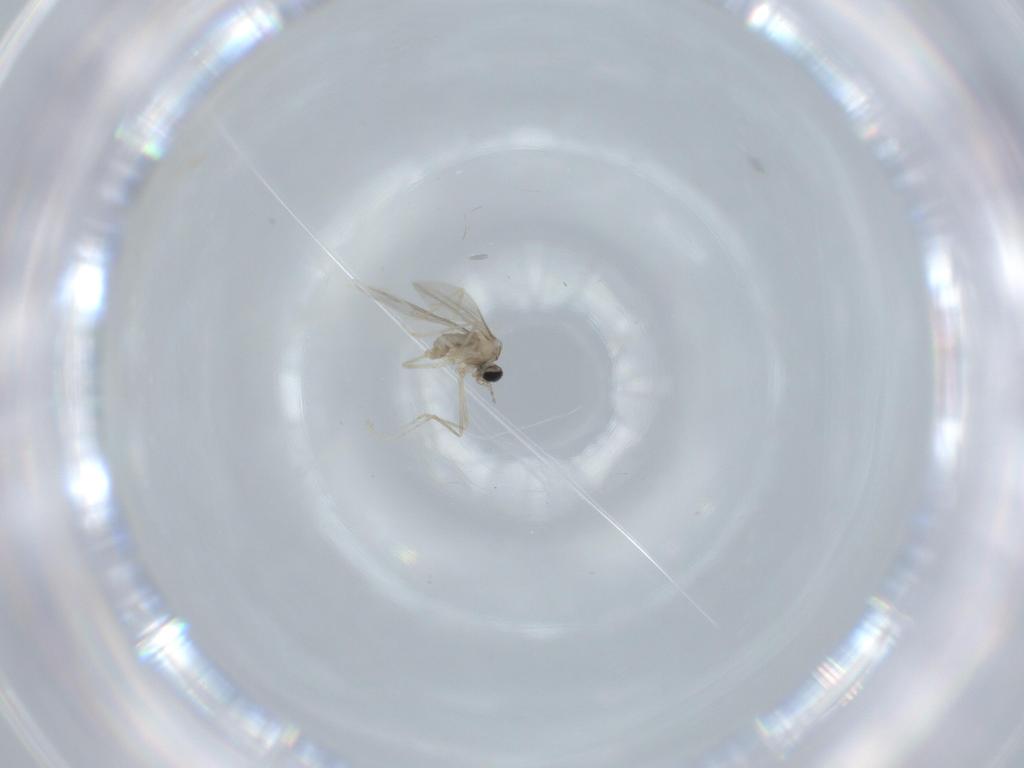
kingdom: Animalia
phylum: Arthropoda
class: Insecta
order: Diptera
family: Cecidomyiidae
